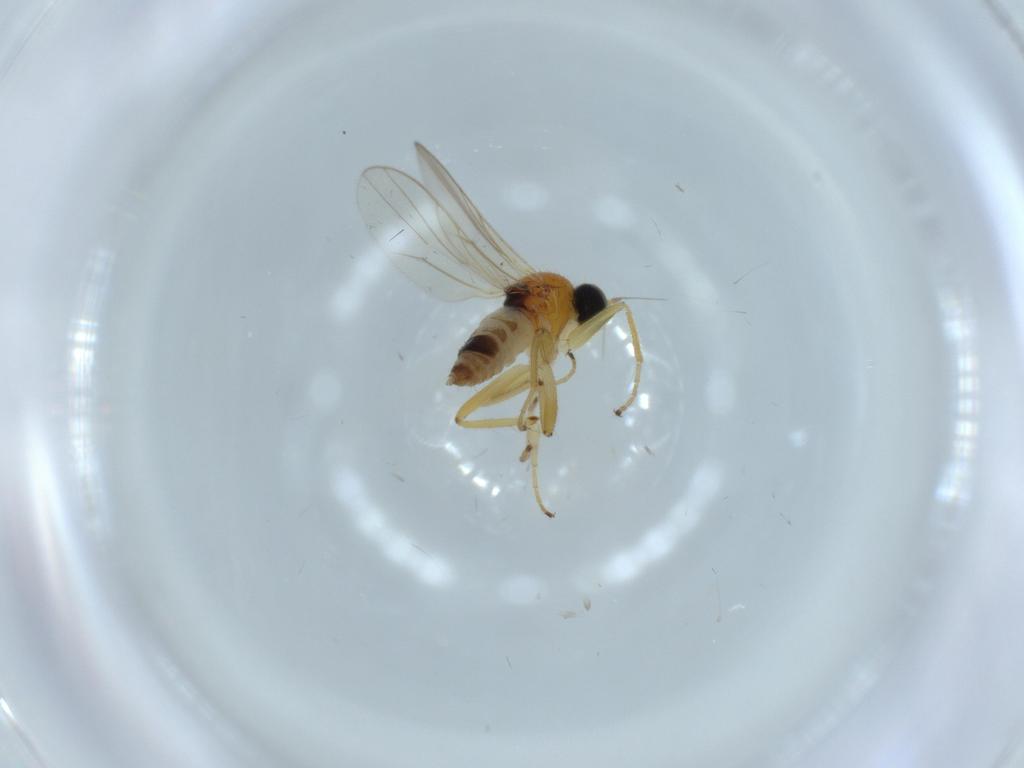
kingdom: Animalia
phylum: Arthropoda
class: Insecta
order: Diptera
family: Hybotidae
